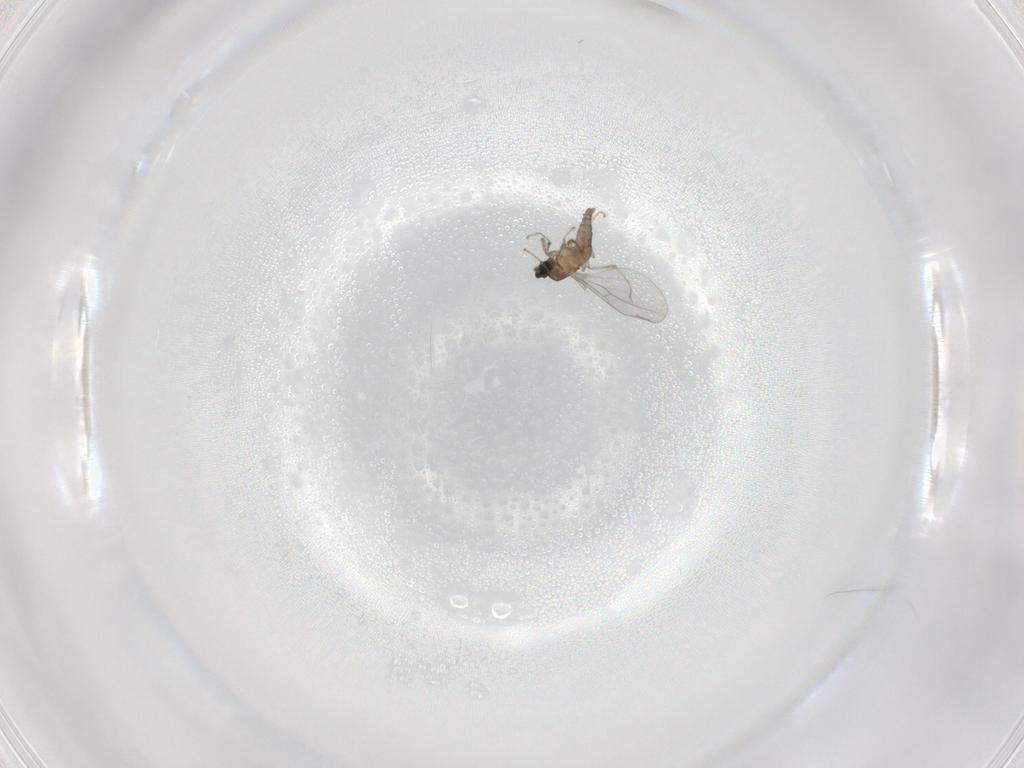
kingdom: Animalia
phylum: Arthropoda
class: Insecta
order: Diptera
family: Cecidomyiidae
